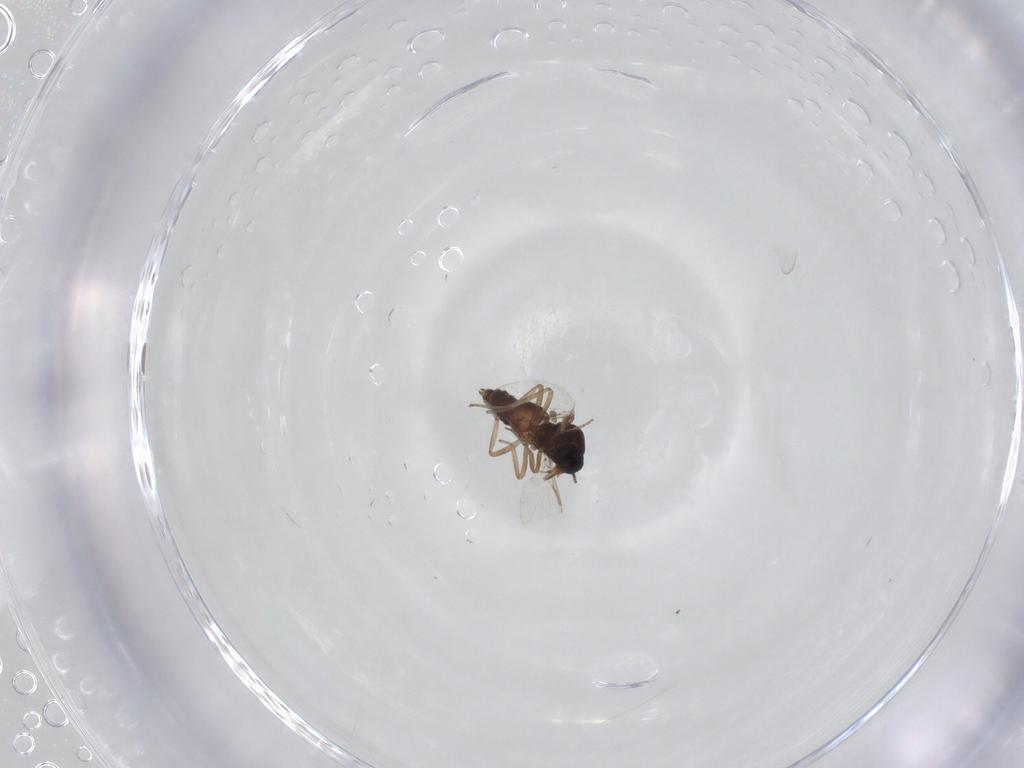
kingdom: Animalia
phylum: Arthropoda
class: Insecta
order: Diptera
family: Ceratopogonidae
